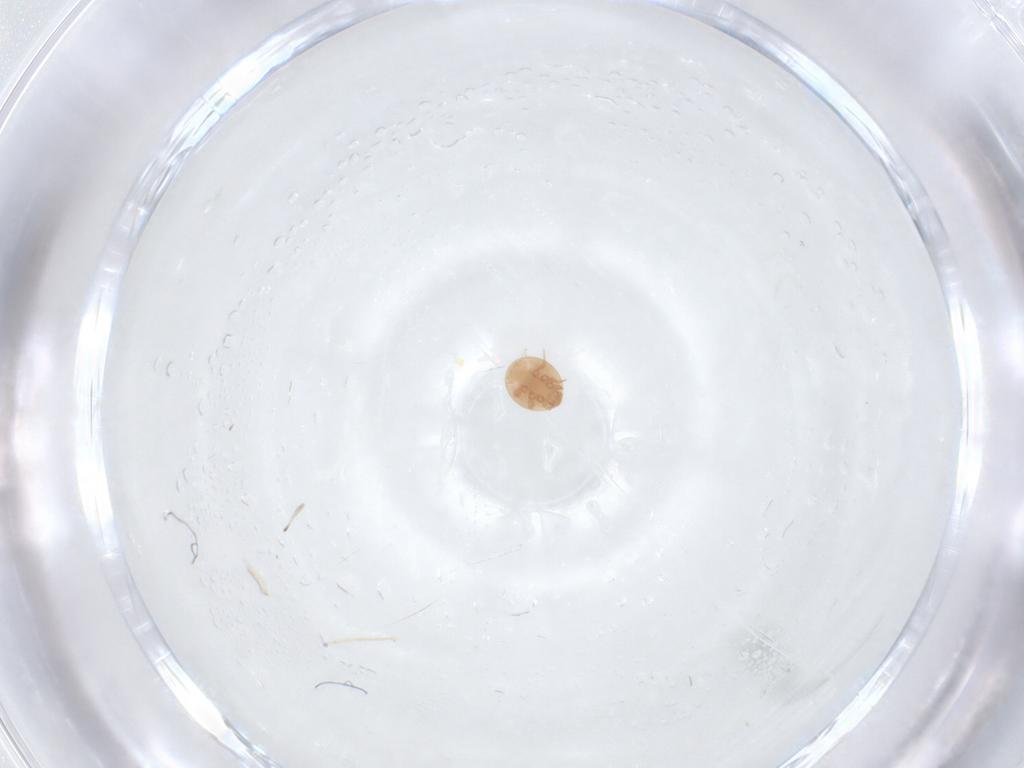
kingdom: Animalia
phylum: Arthropoda
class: Arachnida
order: Mesostigmata
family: Trematuridae
